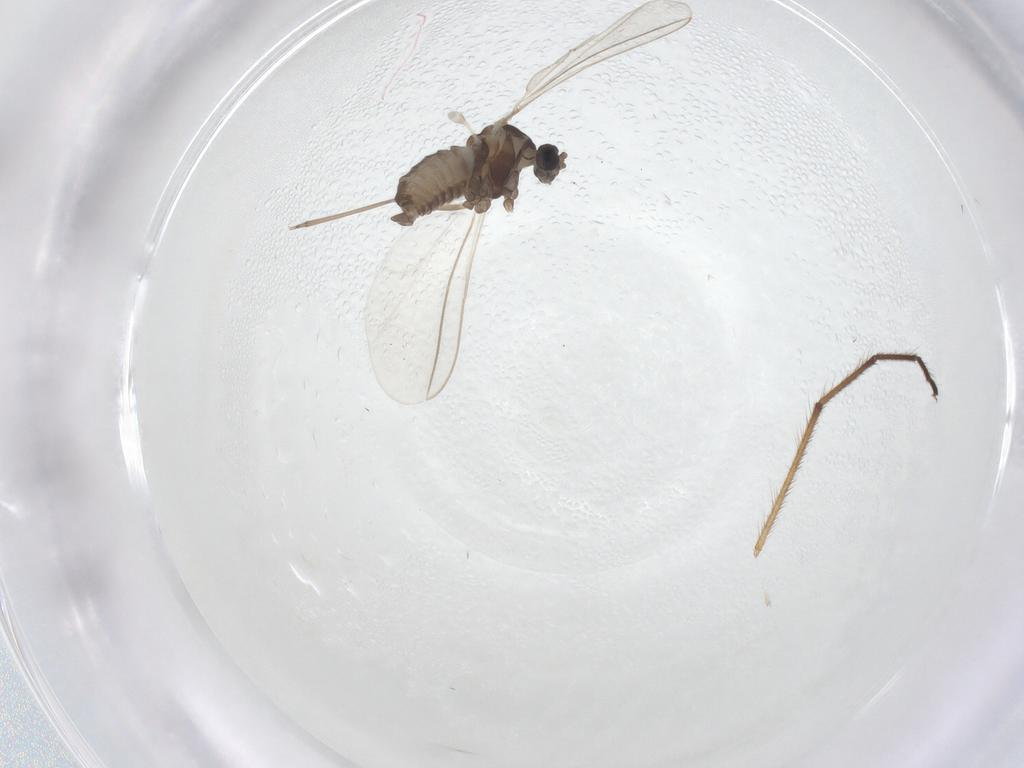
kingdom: Animalia
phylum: Arthropoda
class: Insecta
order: Diptera
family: Cecidomyiidae
